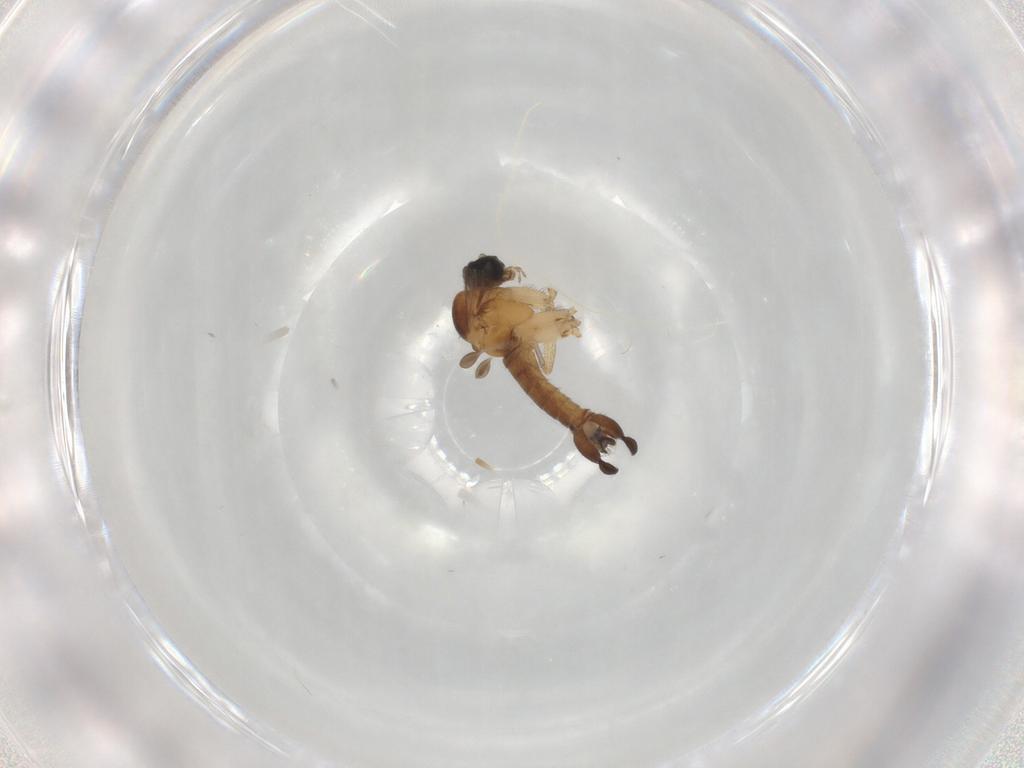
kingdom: Animalia
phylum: Arthropoda
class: Insecta
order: Diptera
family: Sciaridae
